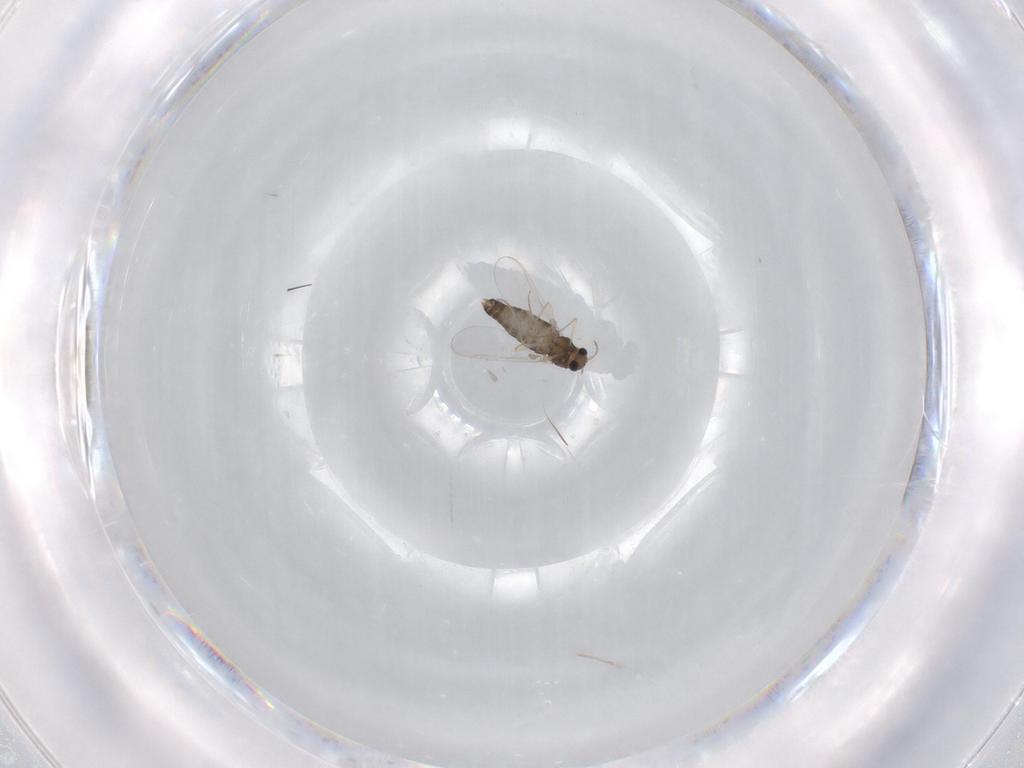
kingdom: Animalia
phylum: Arthropoda
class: Insecta
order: Diptera
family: Chironomidae
